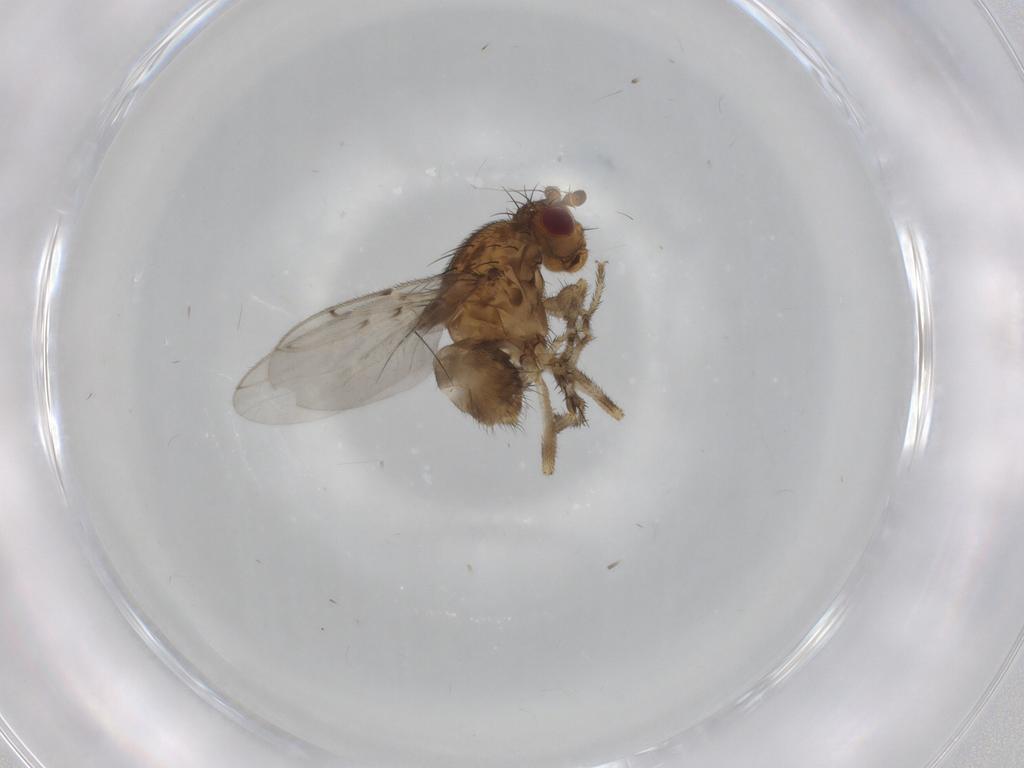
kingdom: Animalia
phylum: Arthropoda
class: Insecta
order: Diptera
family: Sphaeroceridae
